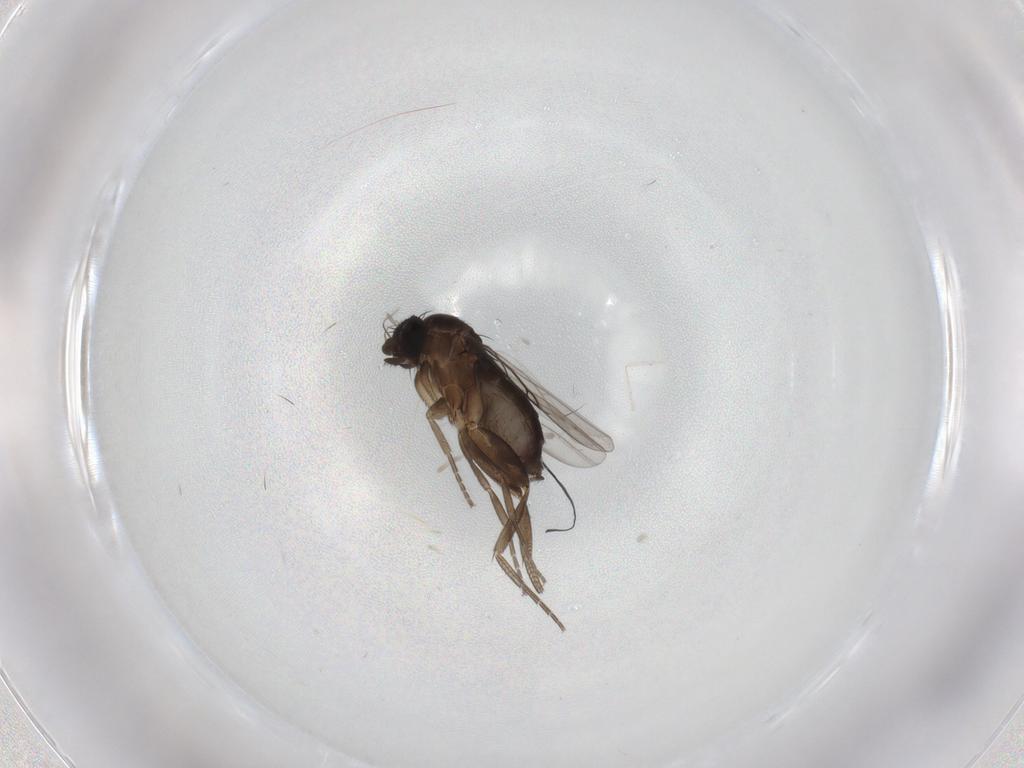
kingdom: Animalia
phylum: Arthropoda
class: Insecta
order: Diptera
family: Phoridae
